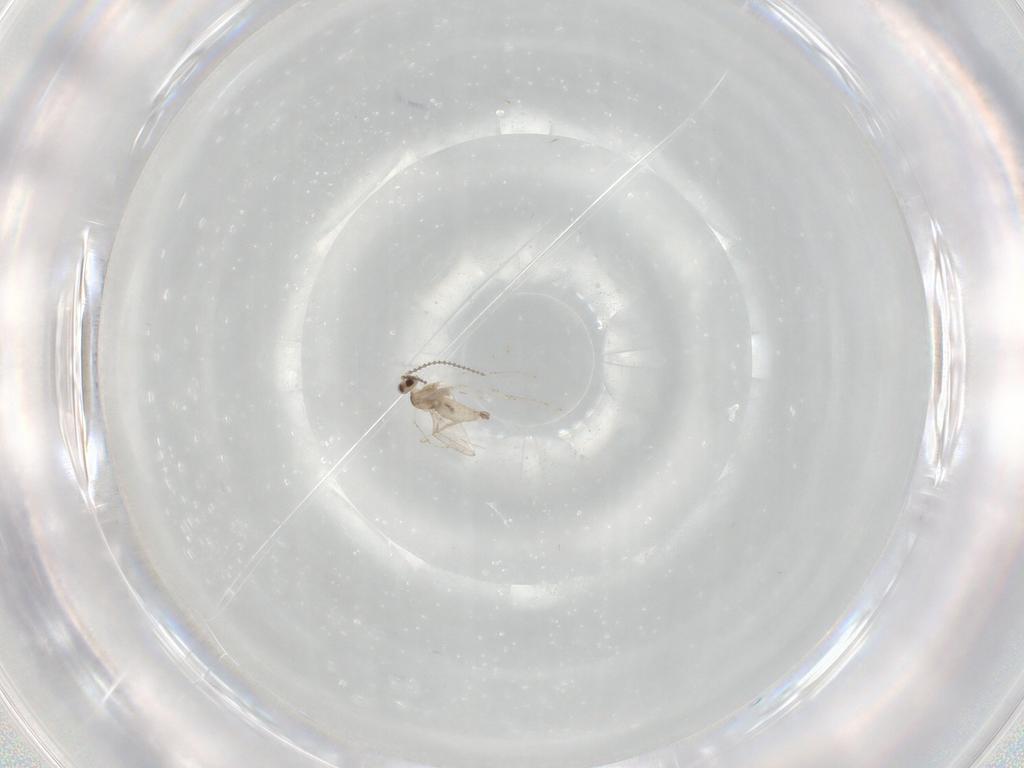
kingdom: Animalia
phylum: Arthropoda
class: Insecta
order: Diptera
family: Cecidomyiidae
